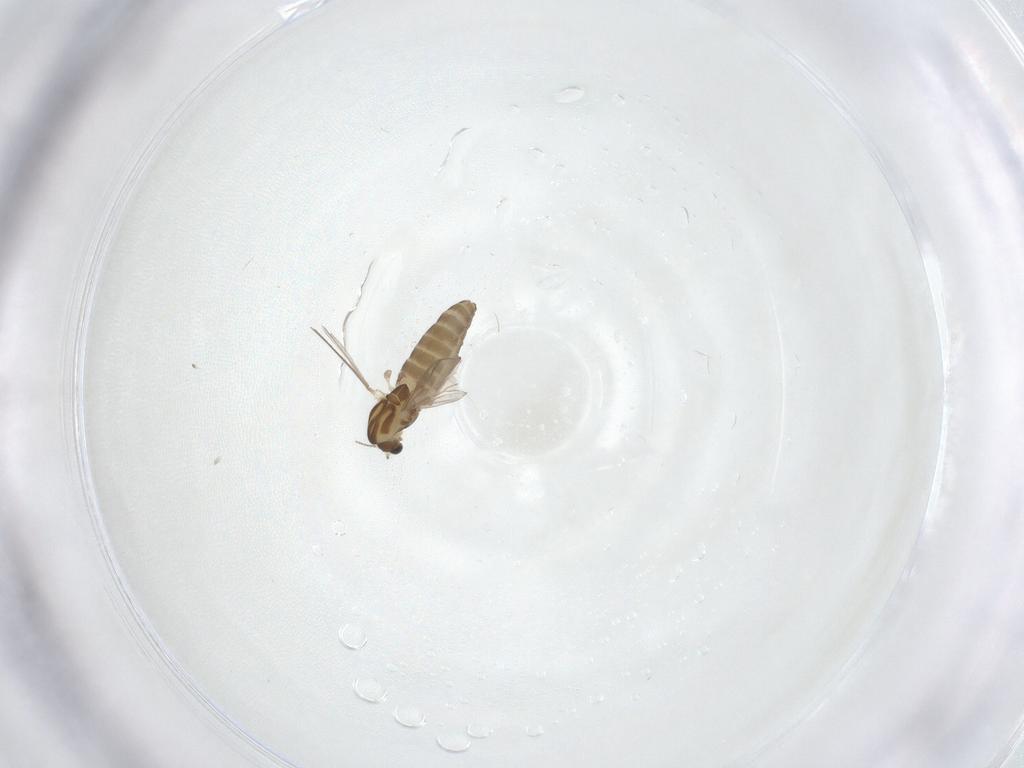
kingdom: Animalia
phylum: Arthropoda
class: Insecta
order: Diptera
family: Chironomidae
